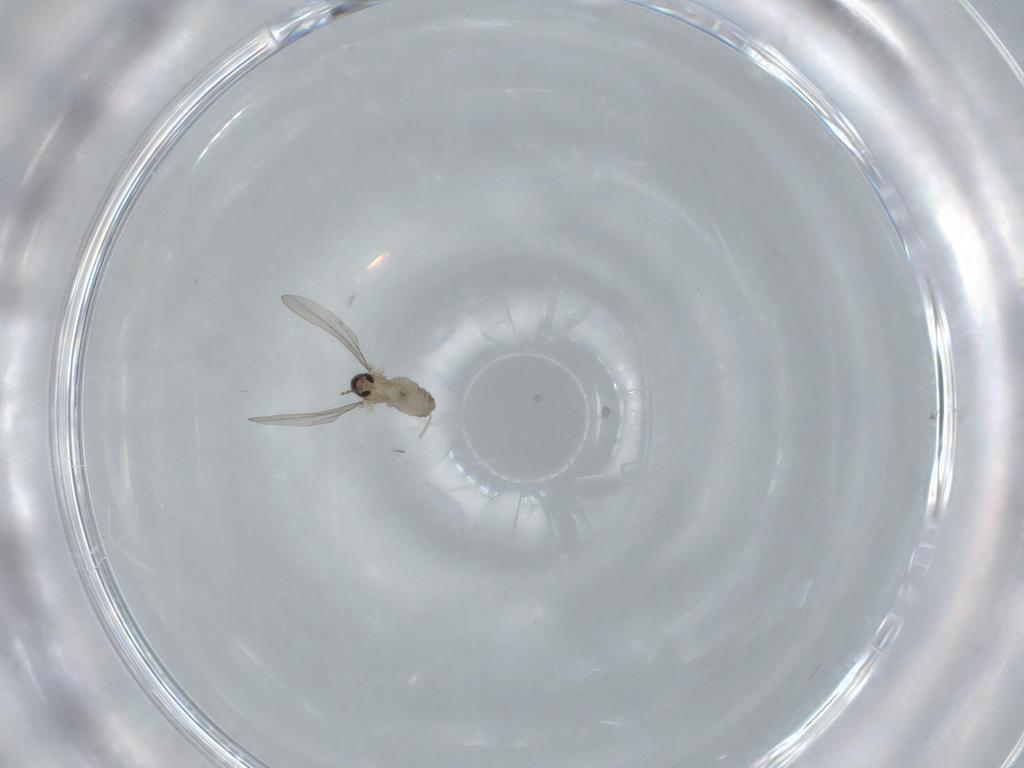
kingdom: Animalia
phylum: Arthropoda
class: Insecta
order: Diptera
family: Cecidomyiidae
